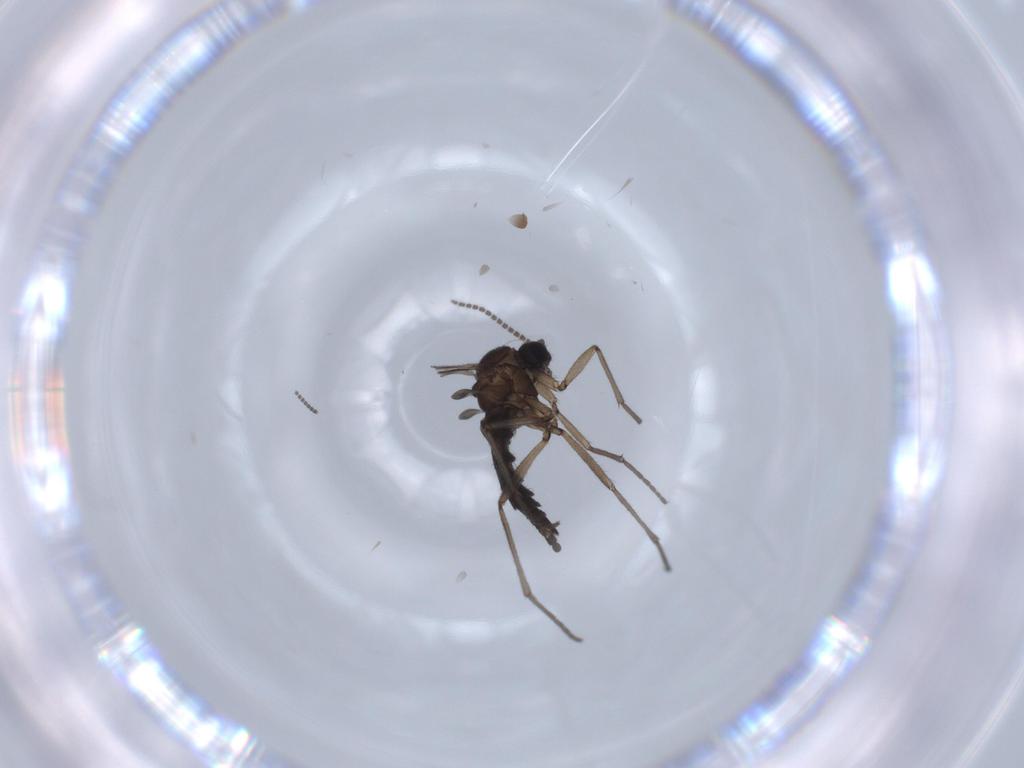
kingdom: Animalia
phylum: Arthropoda
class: Insecta
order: Diptera
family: Sciaridae
